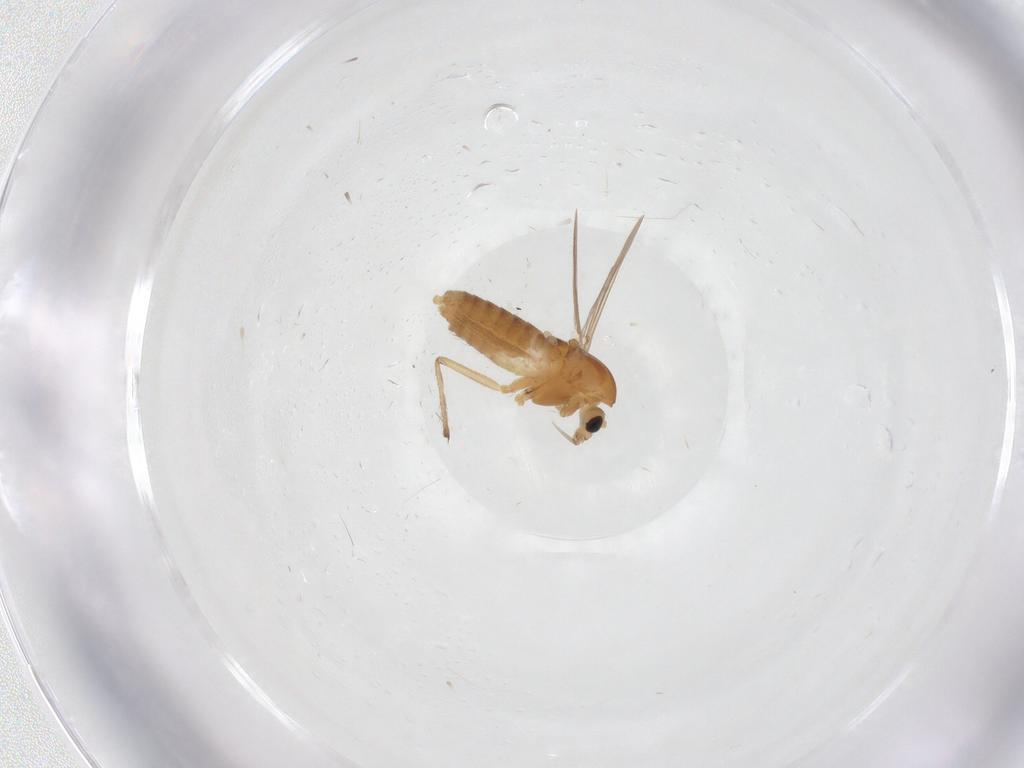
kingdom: Animalia
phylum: Arthropoda
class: Insecta
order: Diptera
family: Chironomidae
